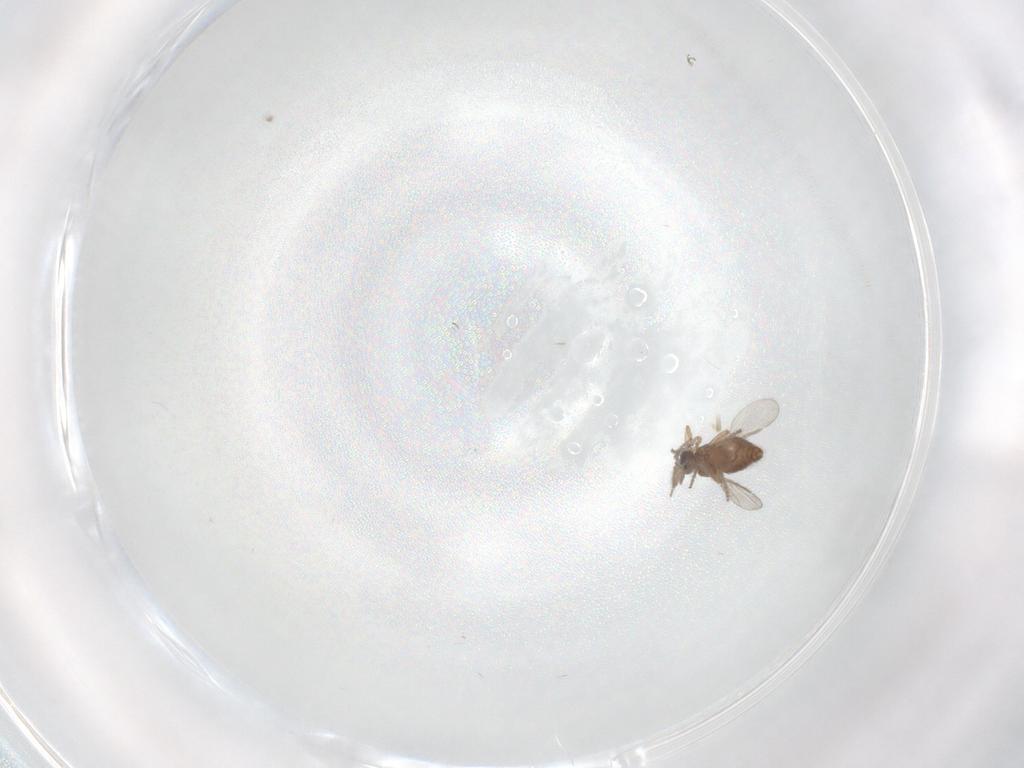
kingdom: Animalia
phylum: Arthropoda
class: Insecta
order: Diptera
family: Ceratopogonidae
